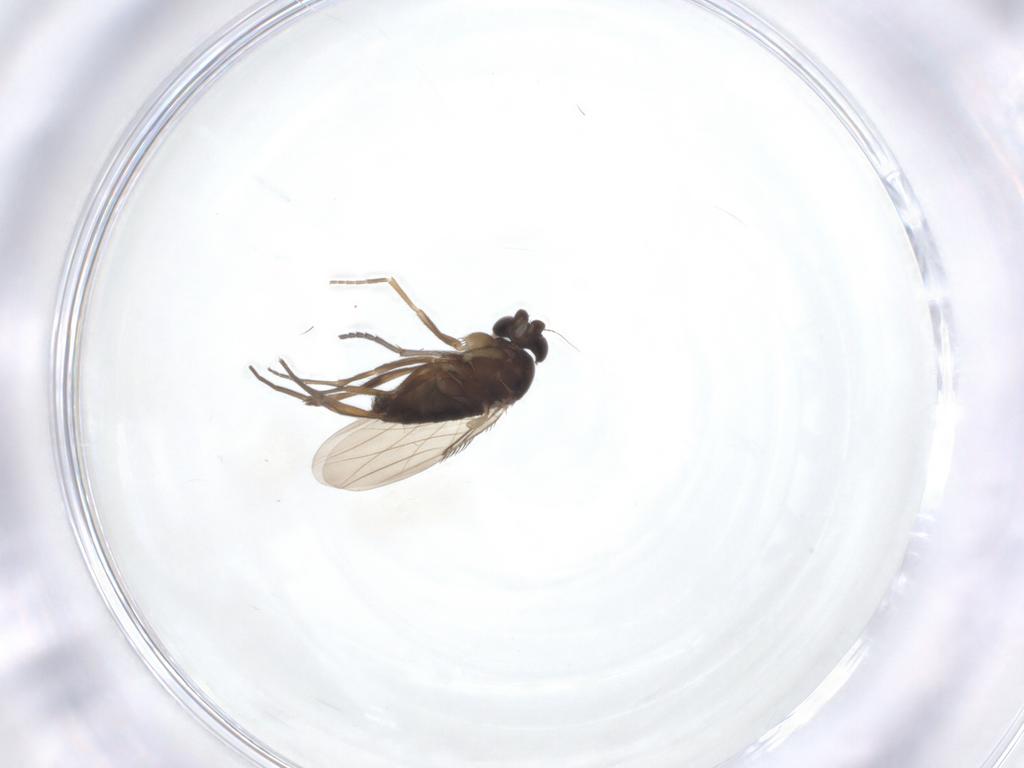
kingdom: Animalia
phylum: Arthropoda
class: Insecta
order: Diptera
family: Phoridae
